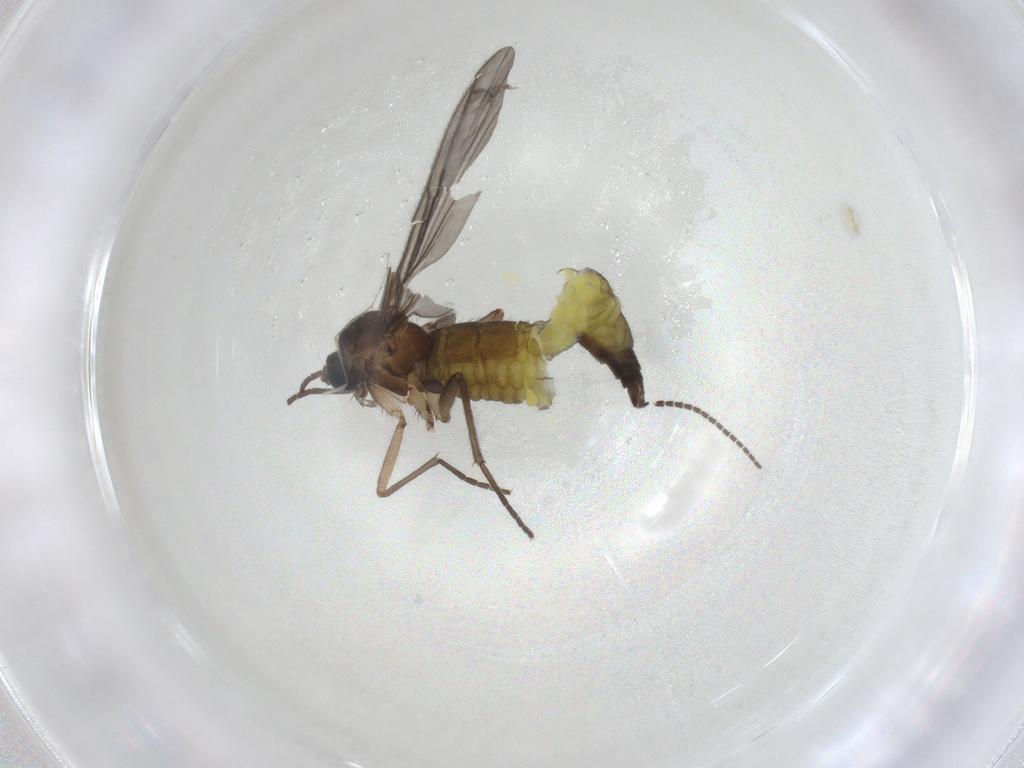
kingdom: Animalia
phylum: Arthropoda
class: Insecta
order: Diptera
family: Sciaridae
